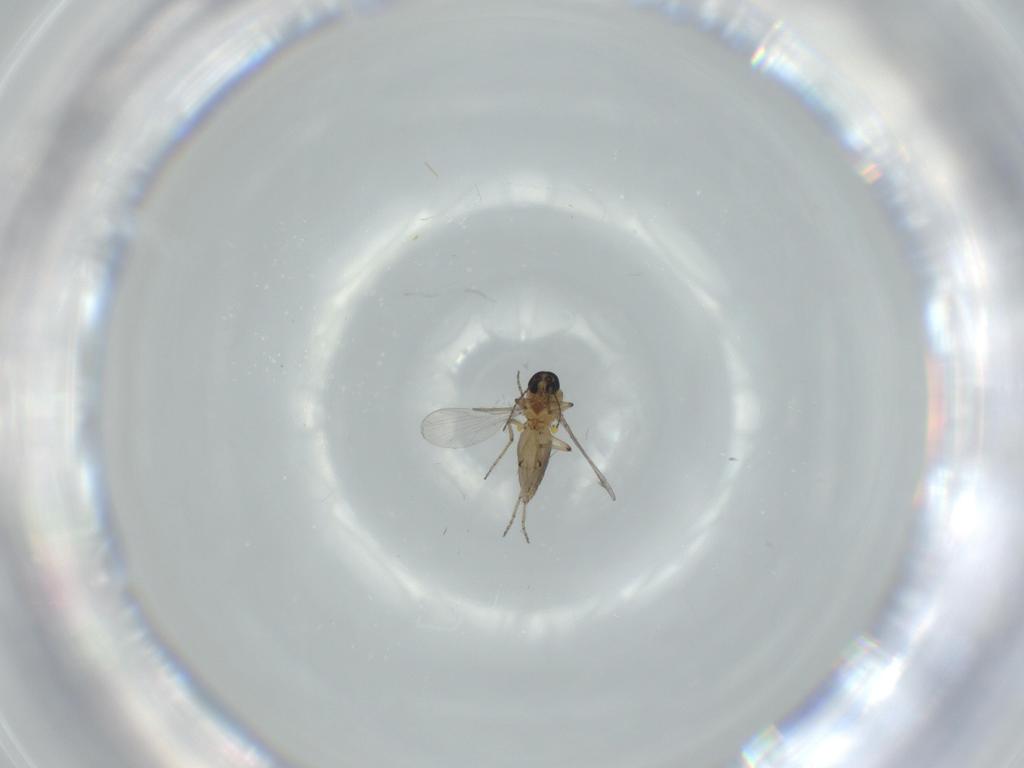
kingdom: Animalia
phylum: Arthropoda
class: Insecta
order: Diptera
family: Ceratopogonidae
